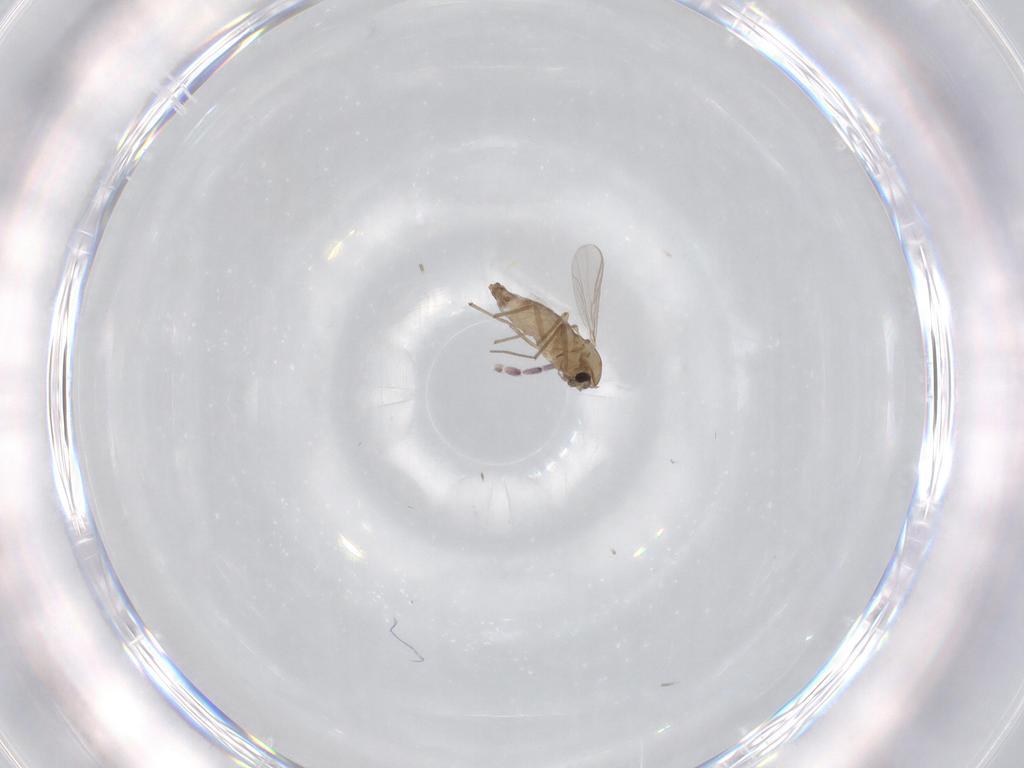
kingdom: Animalia
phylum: Arthropoda
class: Insecta
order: Diptera
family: Chironomidae
